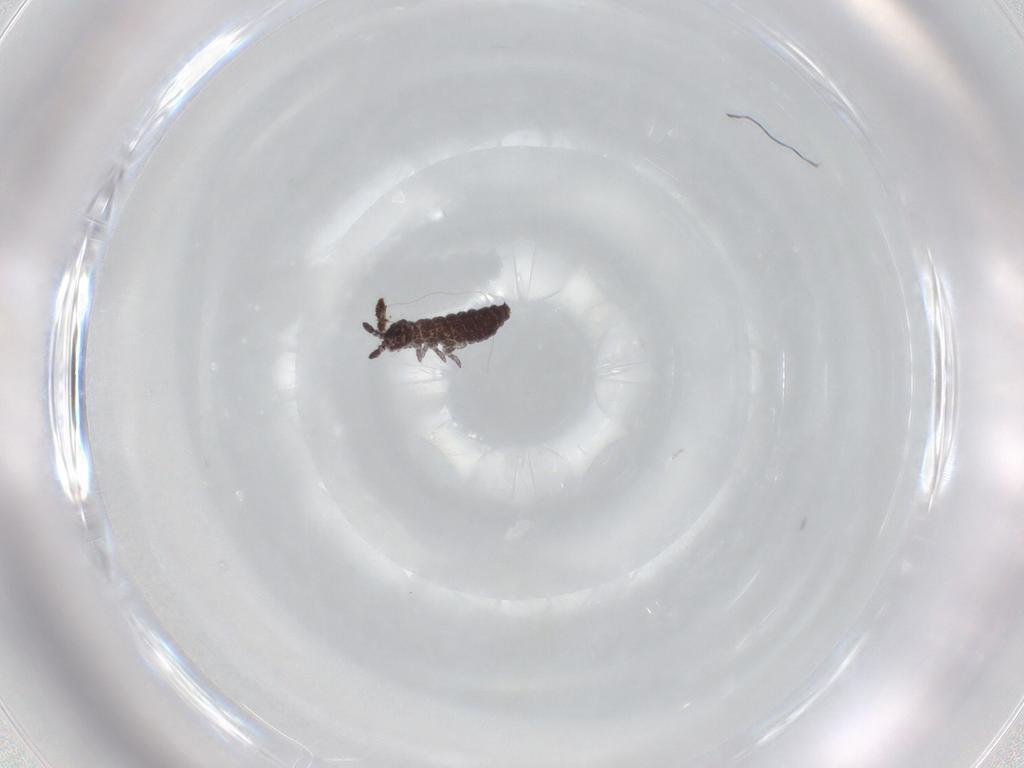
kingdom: Animalia
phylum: Arthropoda
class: Collembola
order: Poduromorpha
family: Hypogastruridae
